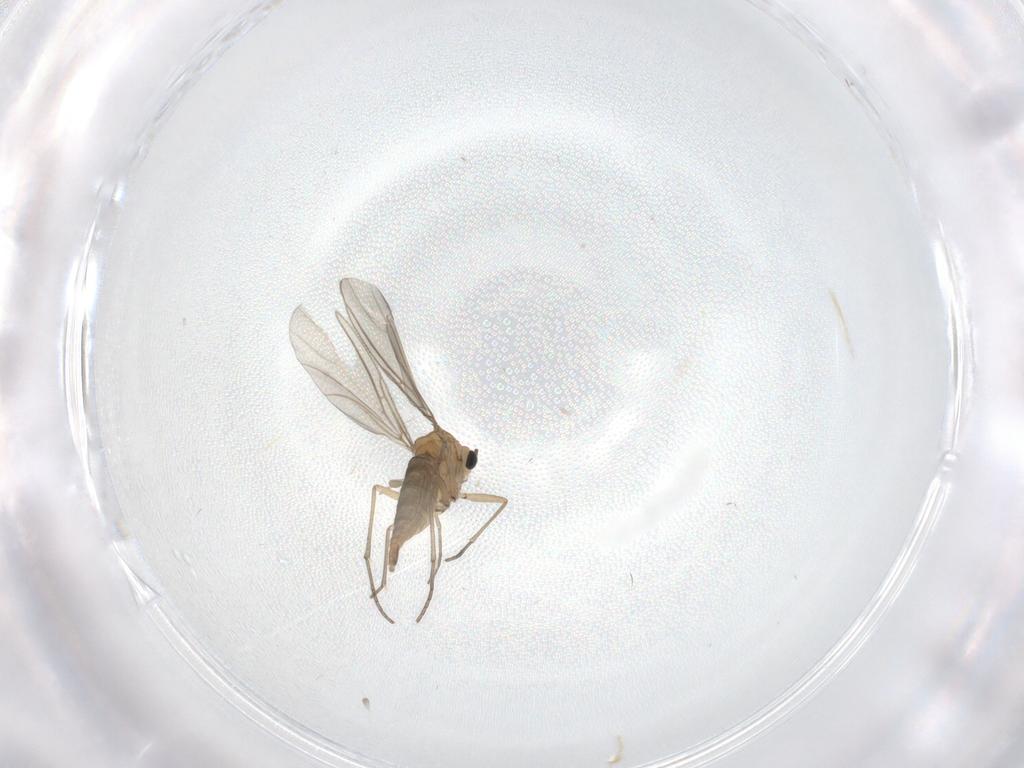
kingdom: Animalia
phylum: Arthropoda
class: Insecta
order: Diptera
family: Sciaridae
